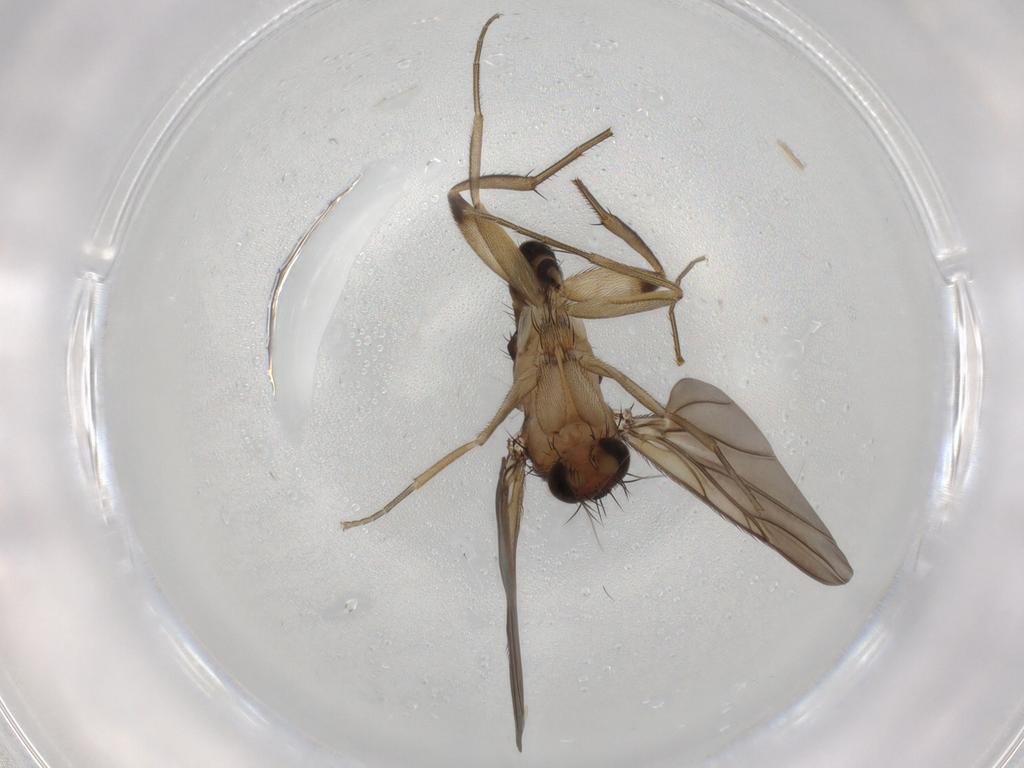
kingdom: Animalia
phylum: Arthropoda
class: Insecta
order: Diptera
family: Phoridae
